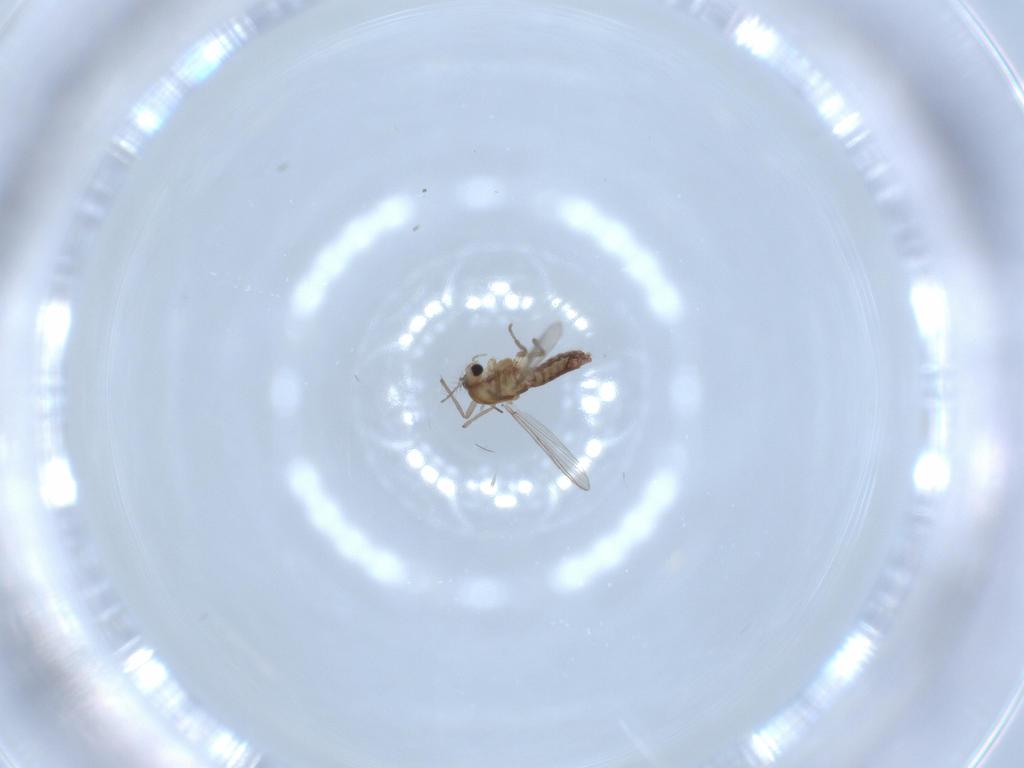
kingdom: Animalia
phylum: Arthropoda
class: Insecta
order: Diptera
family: Chironomidae
